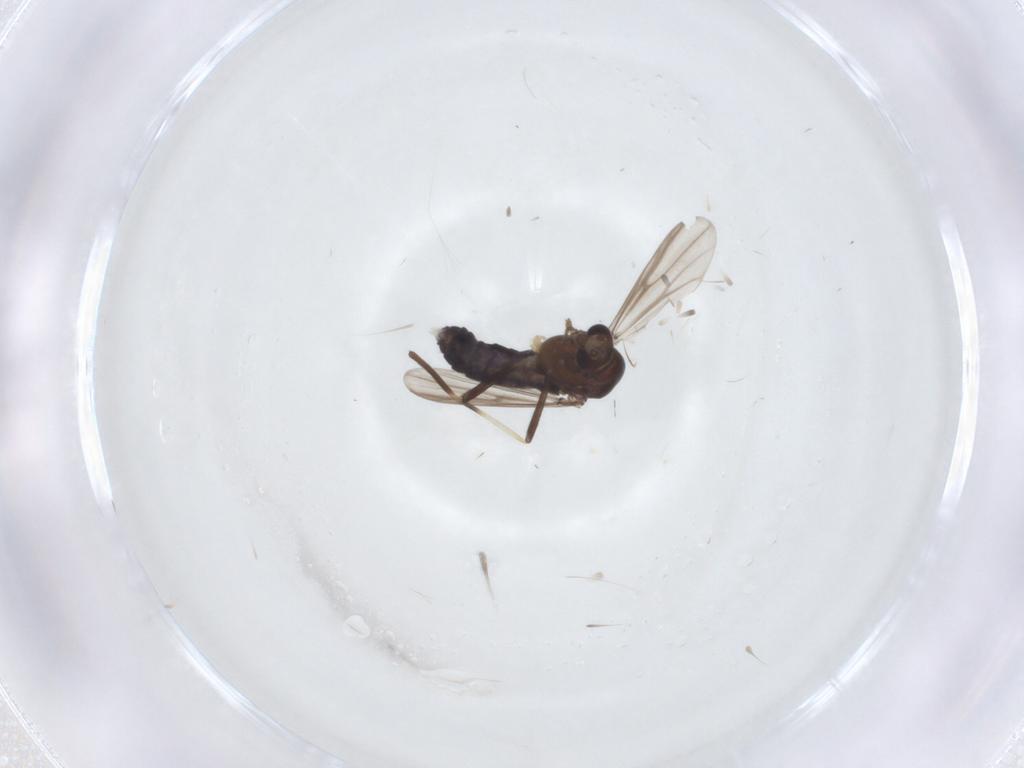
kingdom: Animalia
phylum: Arthropoda
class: Insecta
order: Diptera
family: Chironomidae
